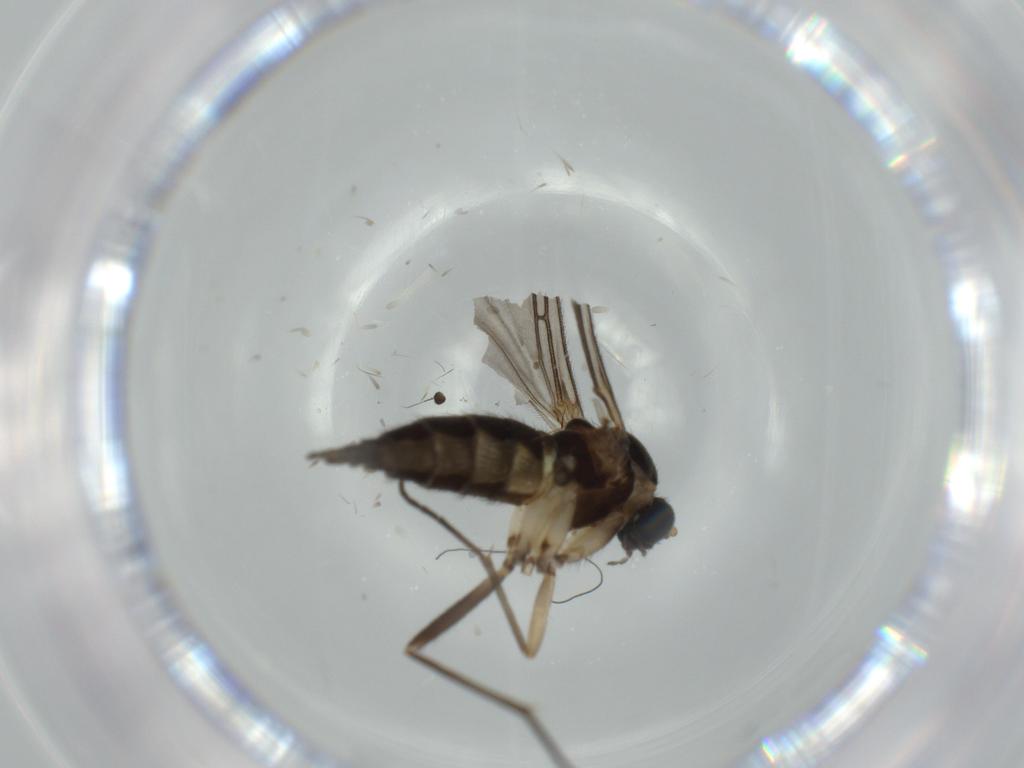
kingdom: Animalia
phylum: Arthropoda
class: Insecta
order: Diptera
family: Sciaridae
